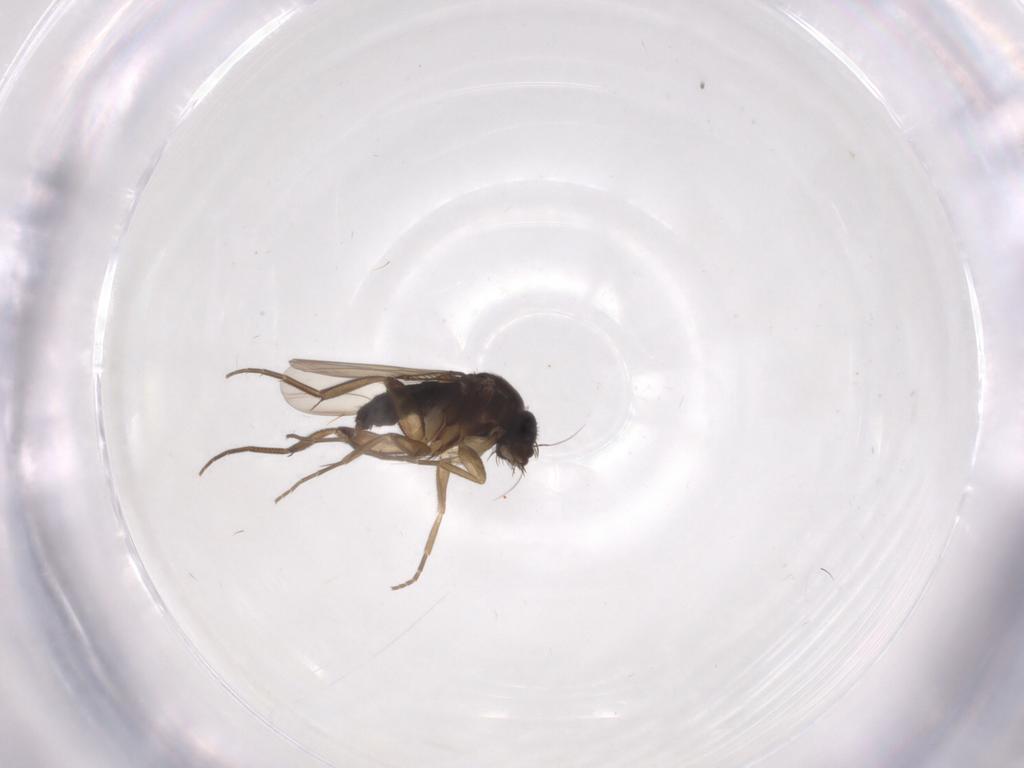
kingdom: Animalia
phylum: Arthropoda
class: Insecta
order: Diptera
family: Phoridae
